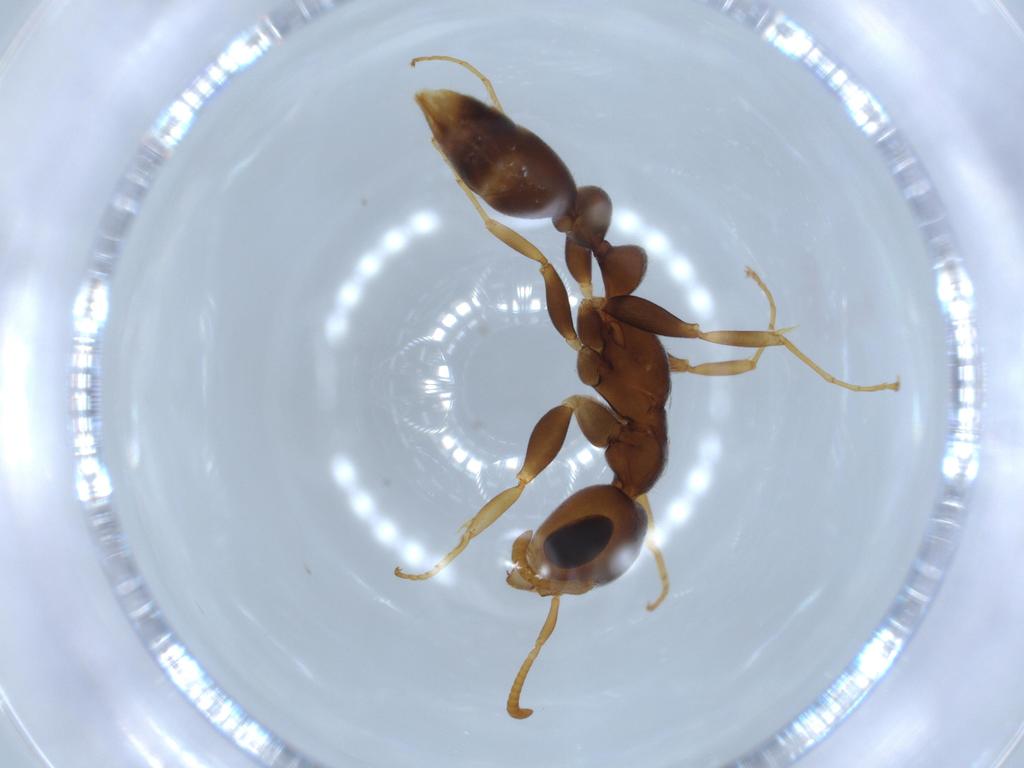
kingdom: Animalia
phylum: Arthropoda
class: Insecta
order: Hymenoptera
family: Formicidae
